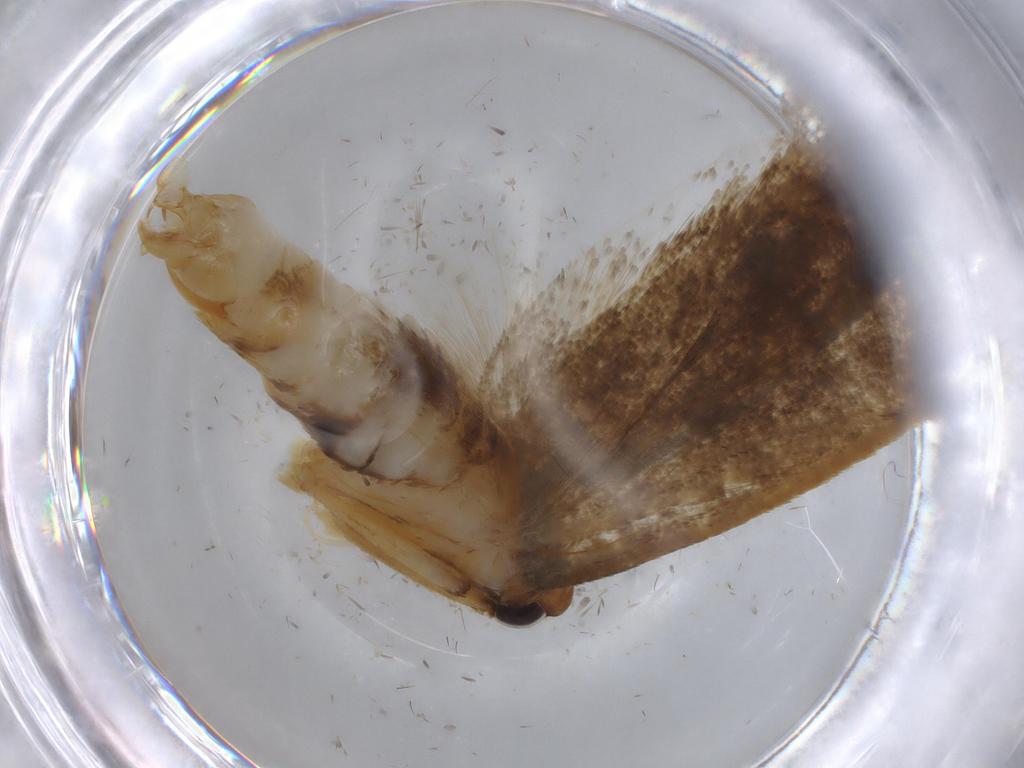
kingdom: Animalia
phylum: Arthropoda
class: Insecta
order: Lepidoptera
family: Lecithoceridae
